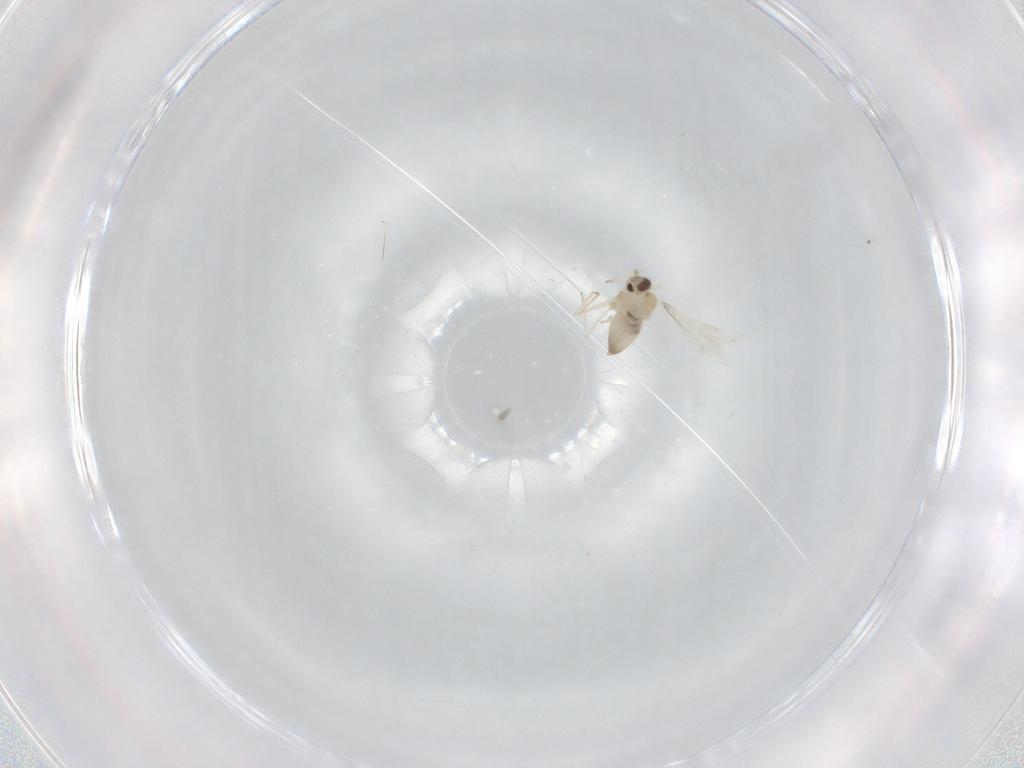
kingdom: Animalia
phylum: Arthropoda
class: Insecta
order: Diptera
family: Cecidomyiidae
